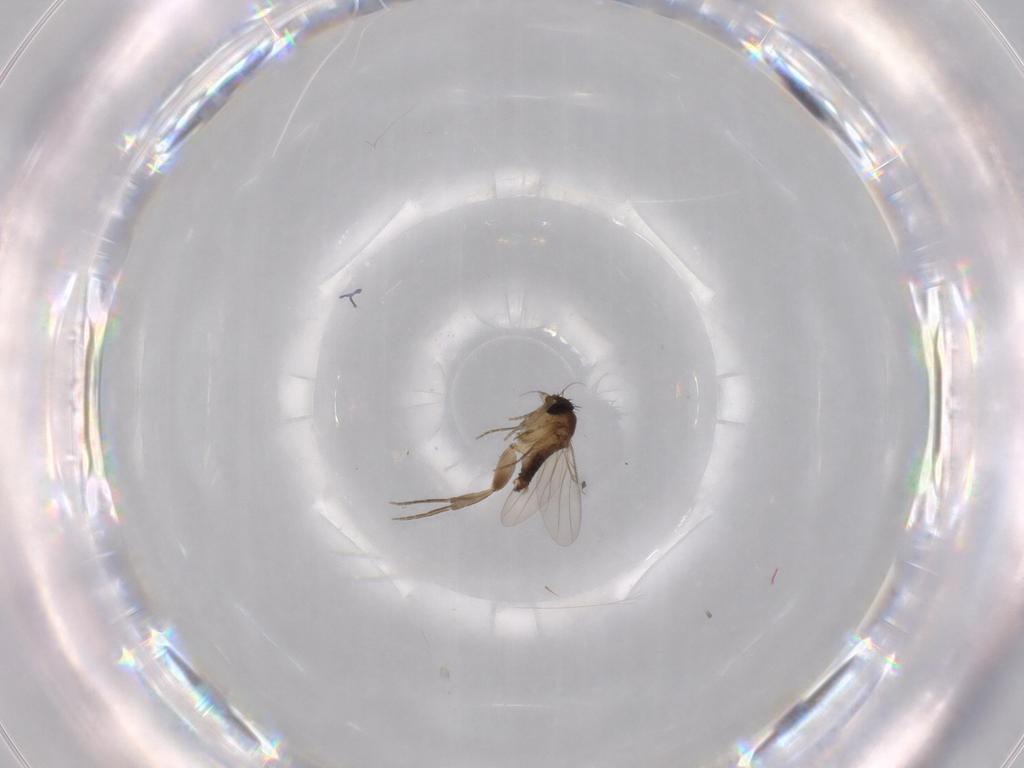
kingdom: Animalia
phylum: Arthropoda
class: Insecta
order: Diptera
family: Phoridae
